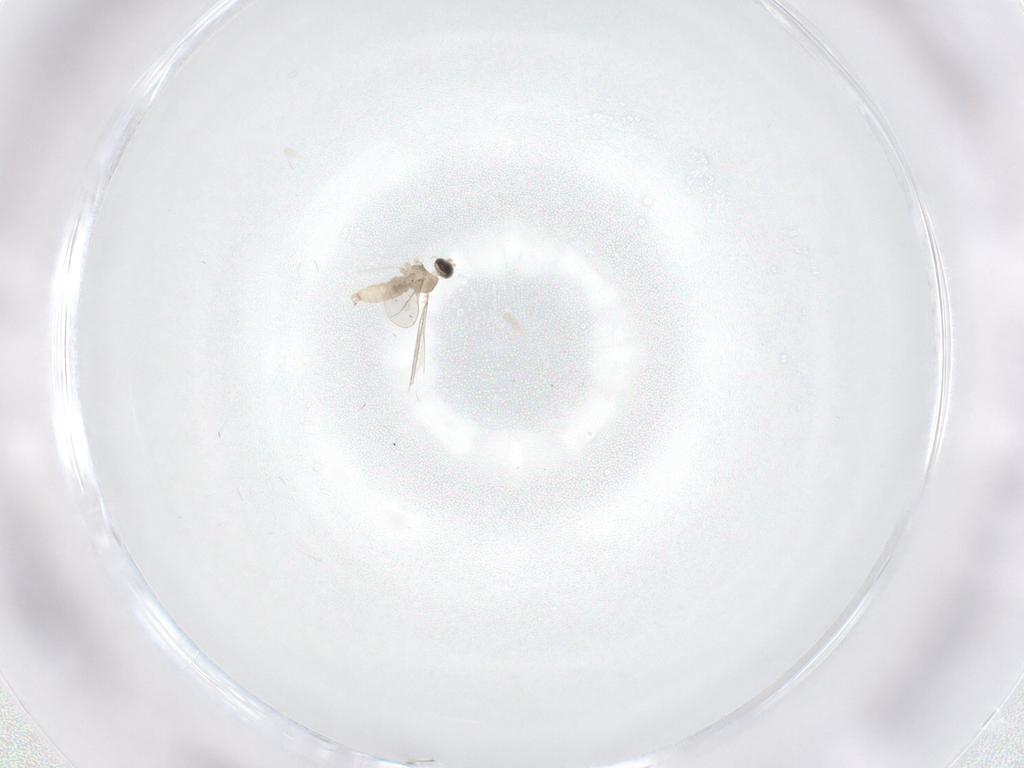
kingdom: Animalia
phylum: Arthropoda
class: Insecta
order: Diptera
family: Cecidomyiidae
